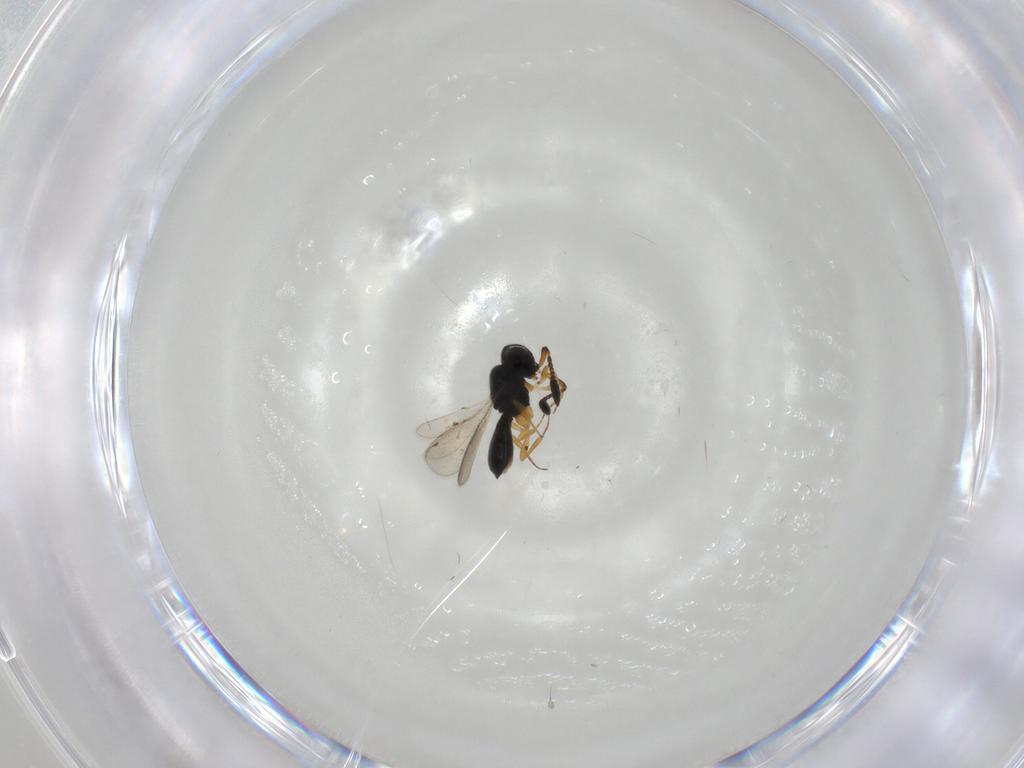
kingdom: Animalia
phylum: Arthropoda
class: Insecta
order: Hymenoptera
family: Scelionidae
